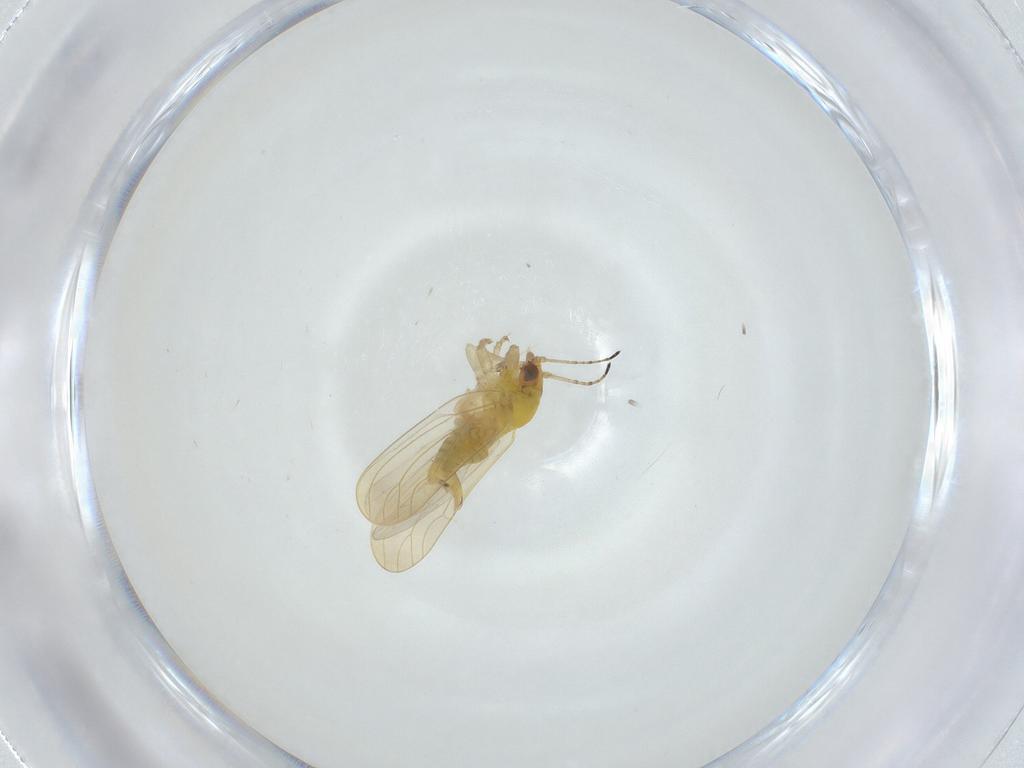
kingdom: Animalia
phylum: Arthropoda
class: Insecta
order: Hemiptera
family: Aphalaridae
